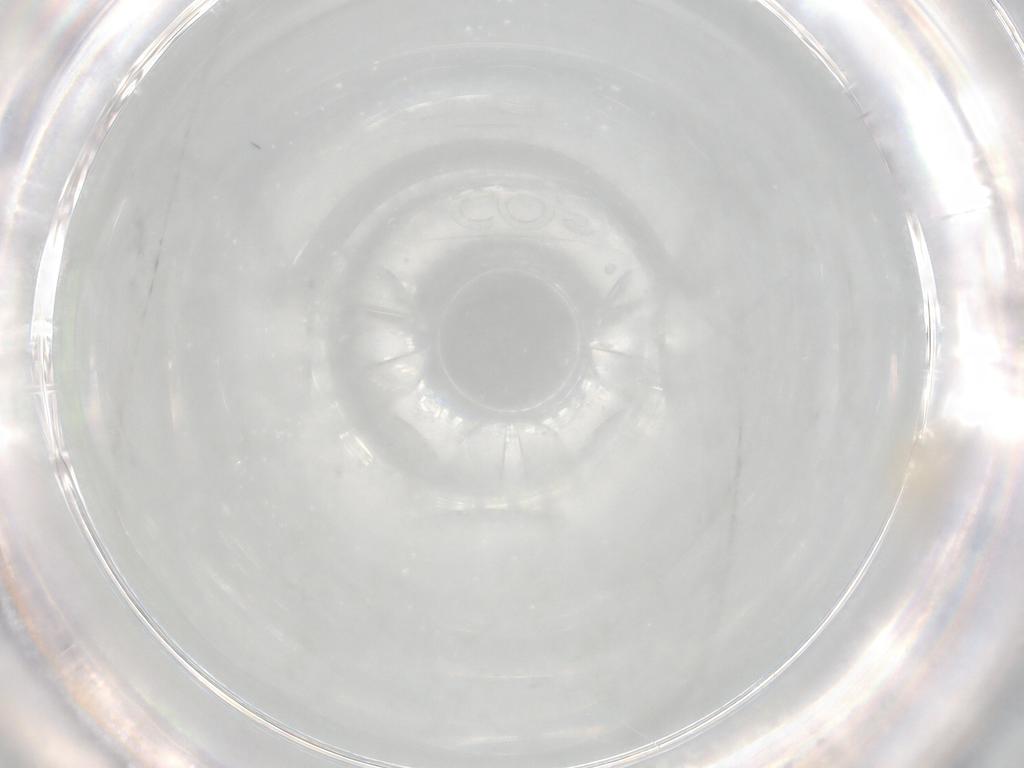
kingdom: Animalia
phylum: Arthropoda
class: Arachnida
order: Trombidiformes
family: Erythraeidae
